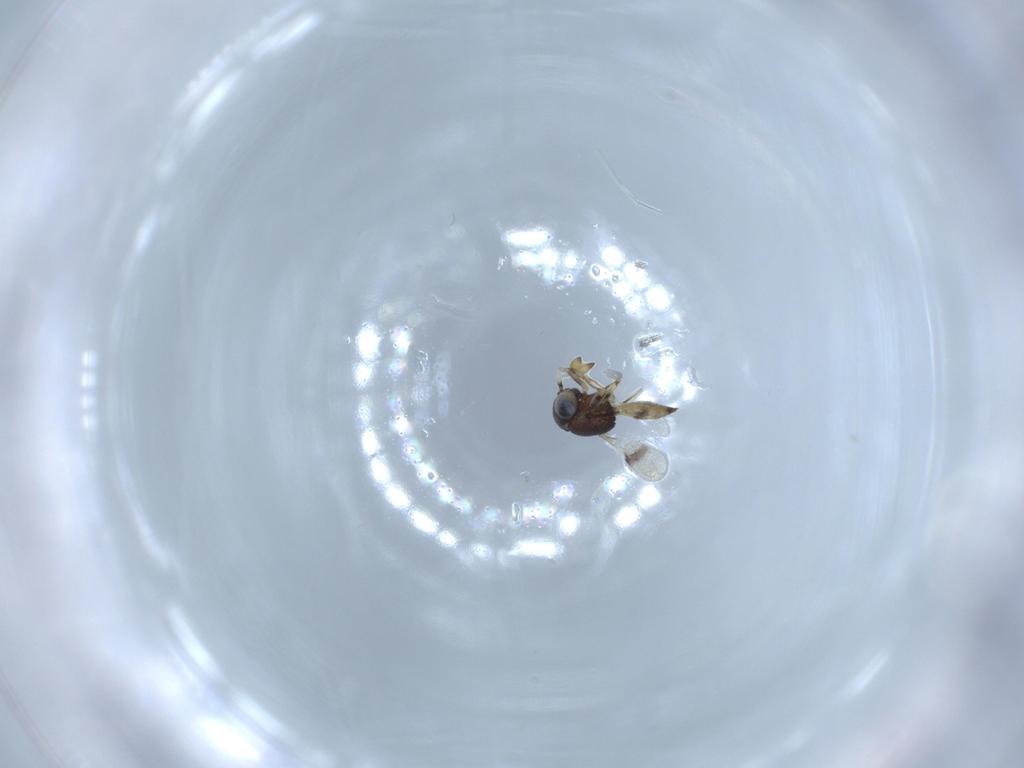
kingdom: Animalia
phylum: Arthropoda
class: Insecta
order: Hymenoptera
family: Scelionidae
